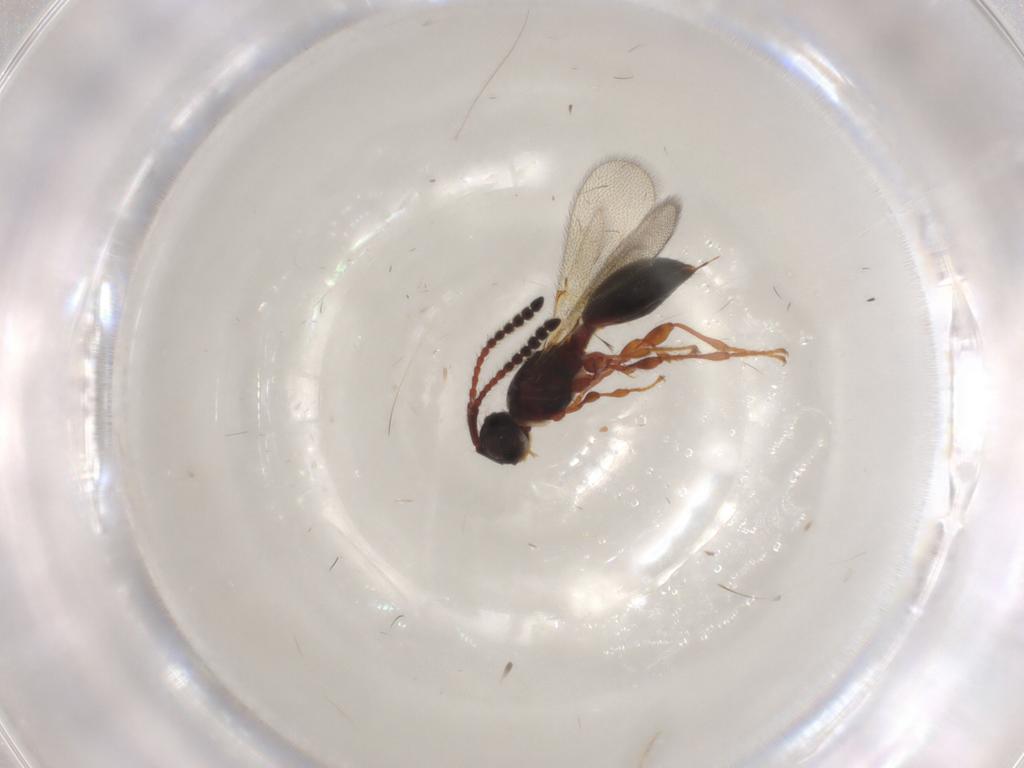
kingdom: Animalia
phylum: Arthropoda
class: Insecta
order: Hymenoptera
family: Diapriidae
